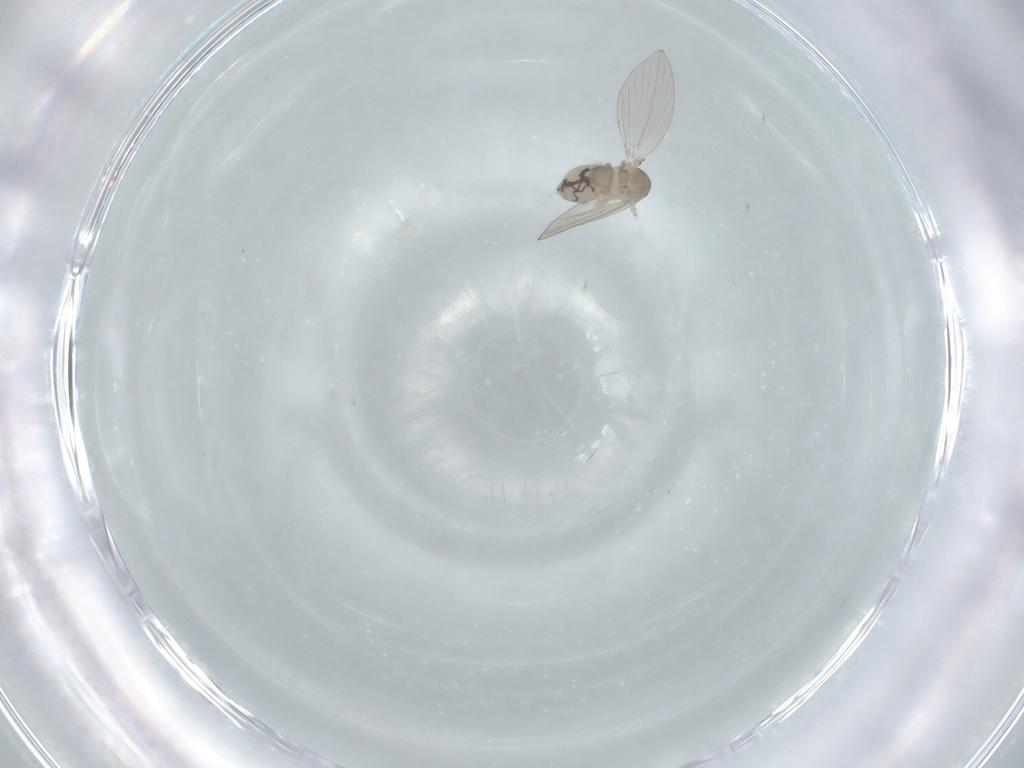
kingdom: Animalia
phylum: Arthropoda
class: Insecta
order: Diptera
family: Psychodidae
